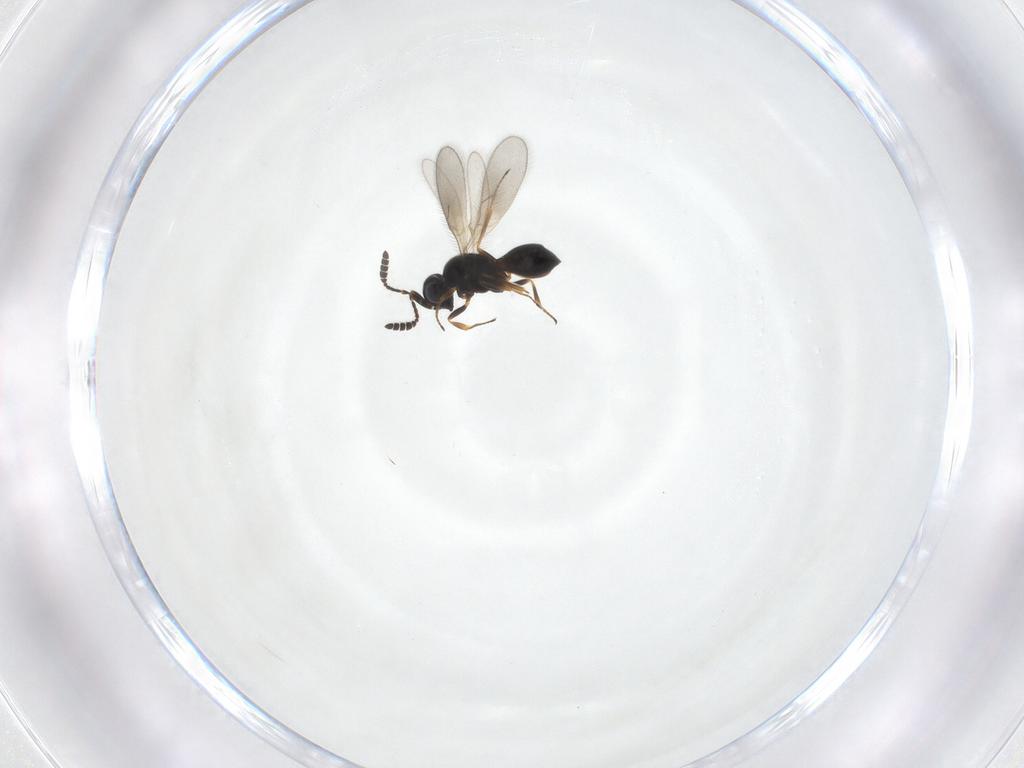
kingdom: Animalia
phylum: Arthropoda
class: Insecta
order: Hymenoptera
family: Scelionidae
